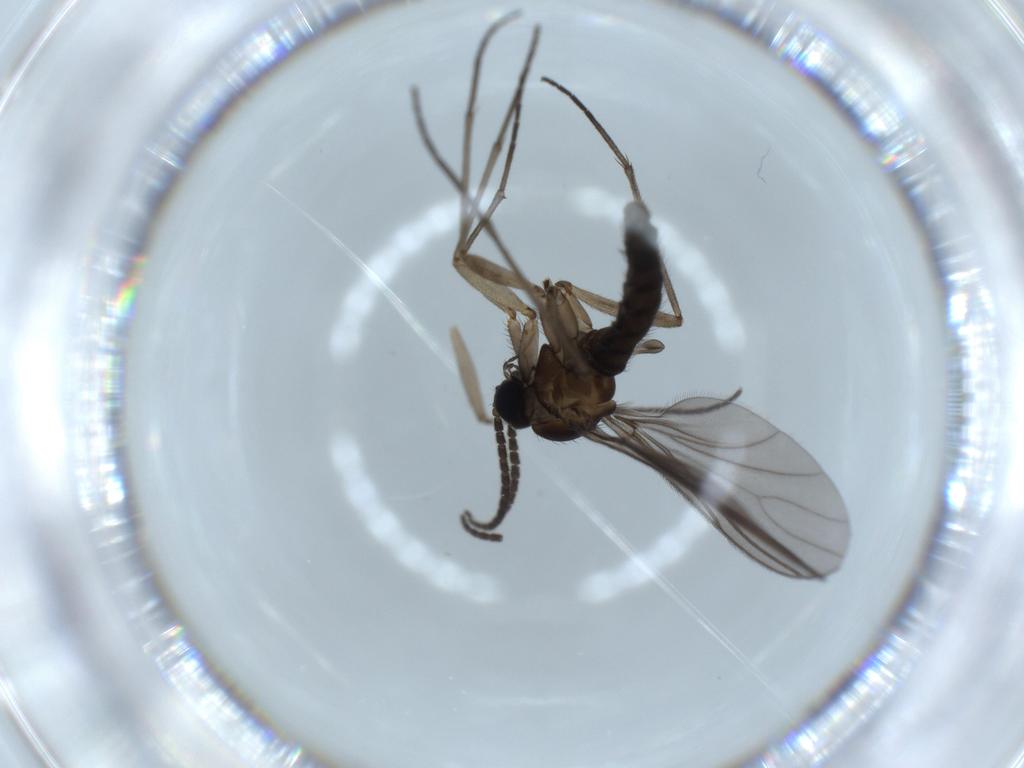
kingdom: Animalia
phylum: Arthropoda
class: Insecta
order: Diptera
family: Sciaridae
